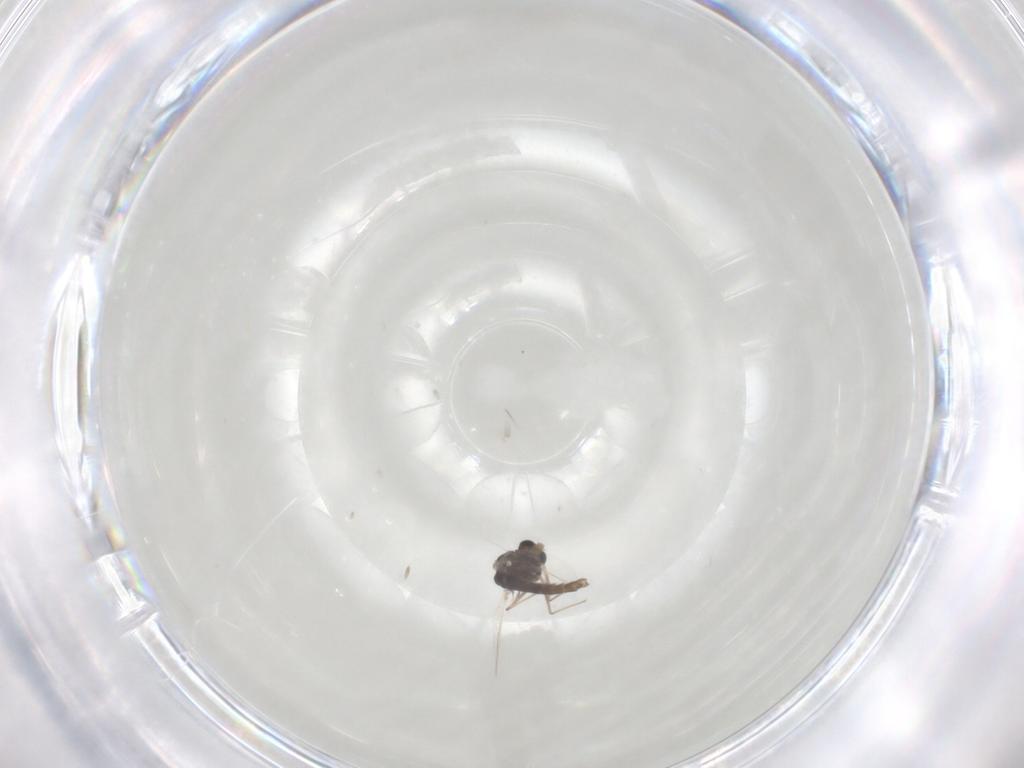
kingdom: Animalia
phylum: Arthropoda
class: Insecta
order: Diptera
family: Chironomidae
